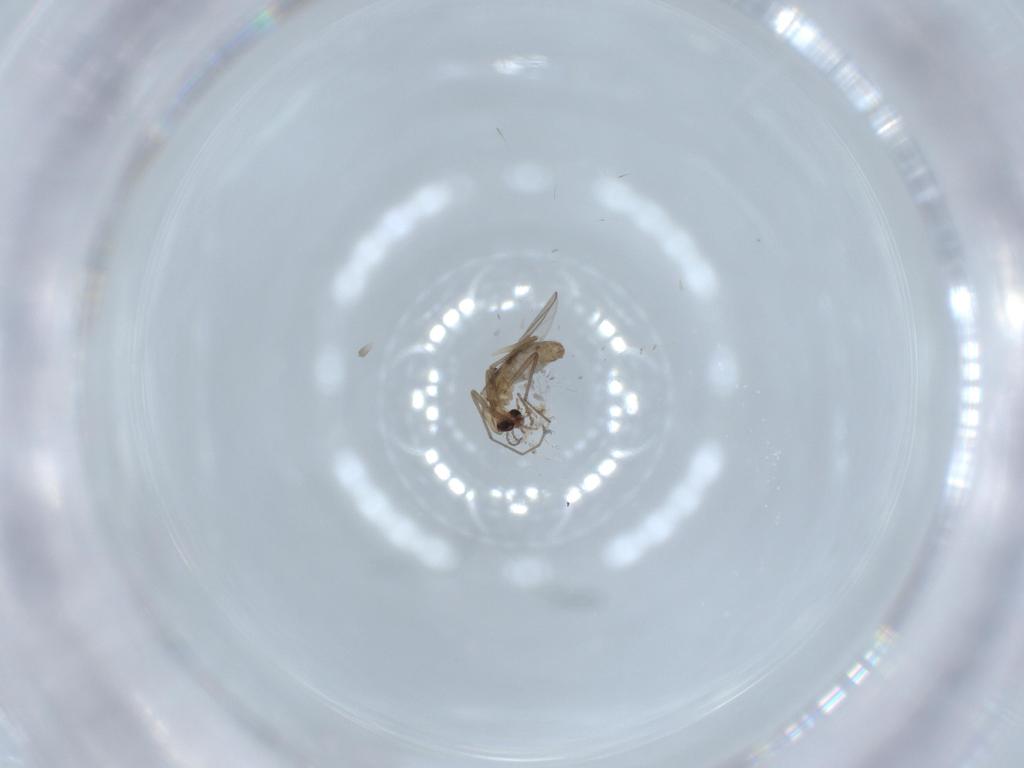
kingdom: Animalia
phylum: Arthropoda
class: Insecta
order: Diptera
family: Chironomidae
